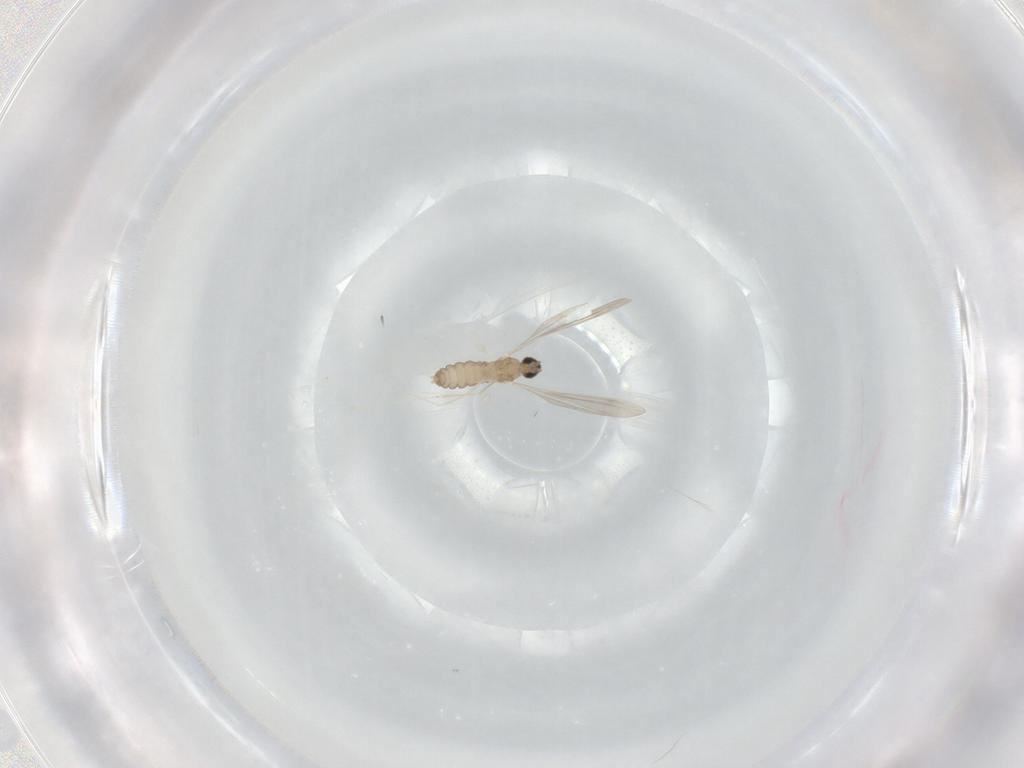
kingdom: Animalia
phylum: Arthropoda
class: Insecta
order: Diptera
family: Cecidomyiidae
